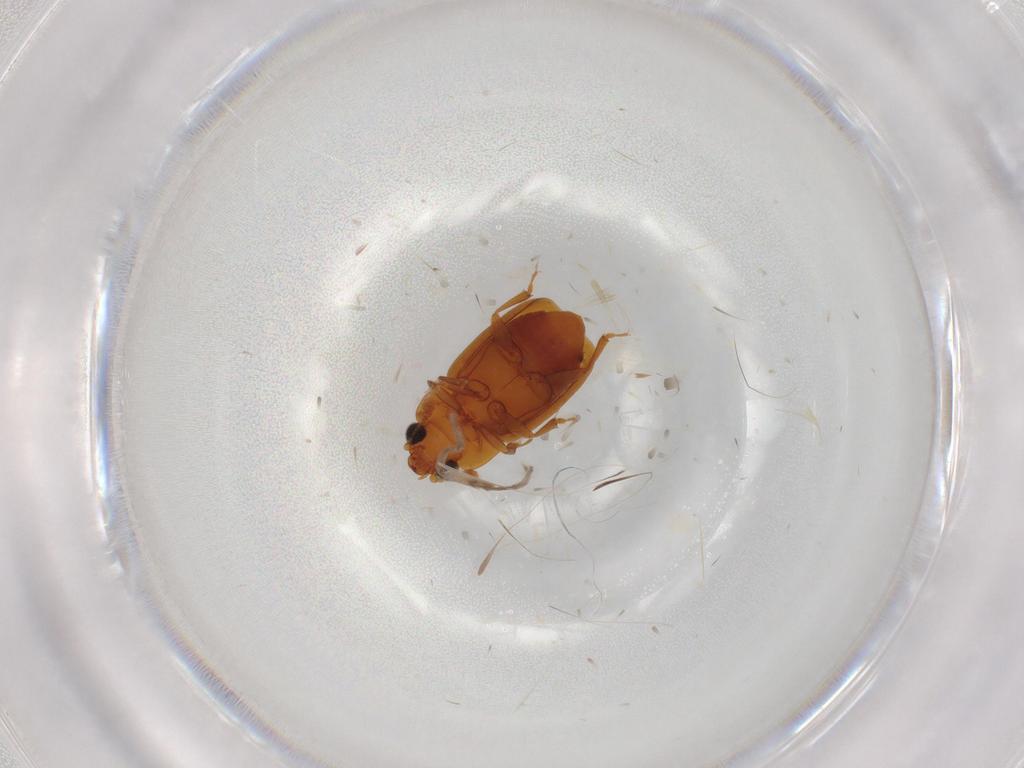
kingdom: Animalia
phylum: Arthropoda
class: Insecta
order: Coleoptera
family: Nitidulidae
